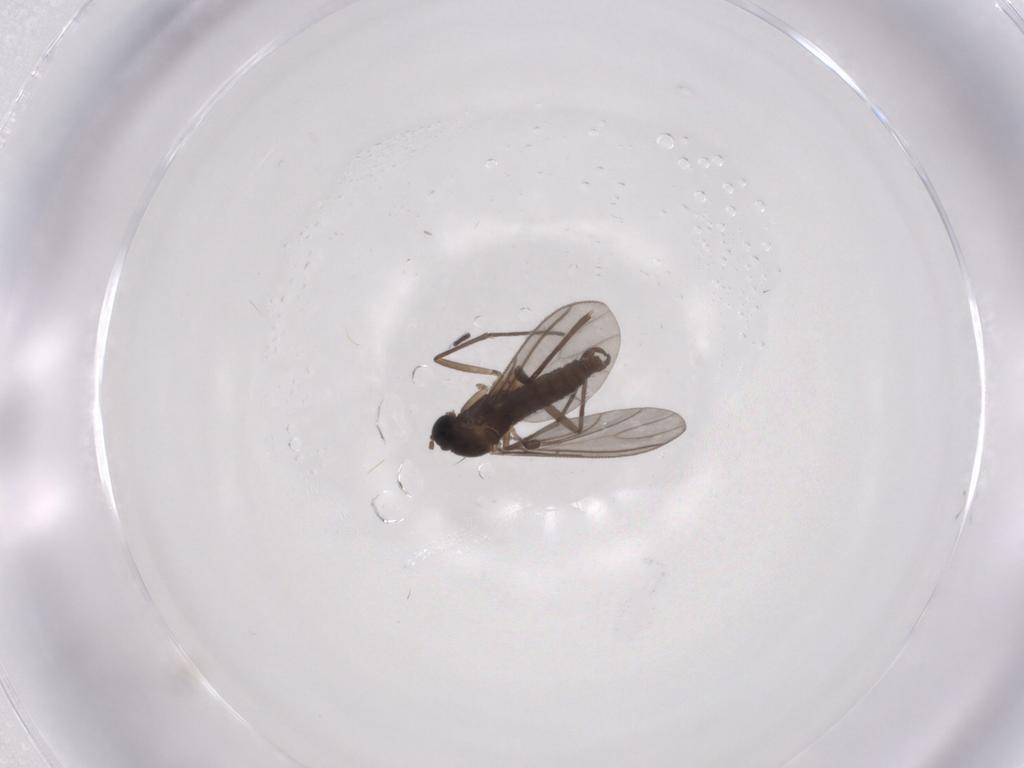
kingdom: Animalia
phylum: Arthropoda
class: Insecta
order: Diptera
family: Sciaridae
